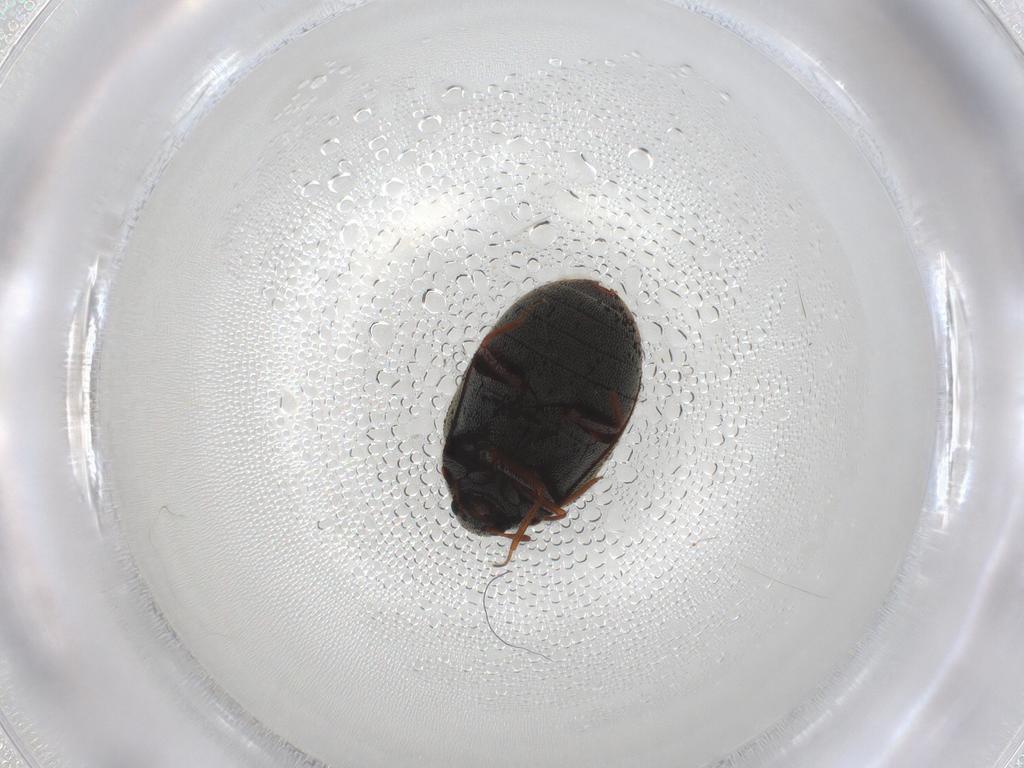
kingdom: Animalia
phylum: Arthropoda
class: Insecta
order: Coleoptera
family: Dermestidae
